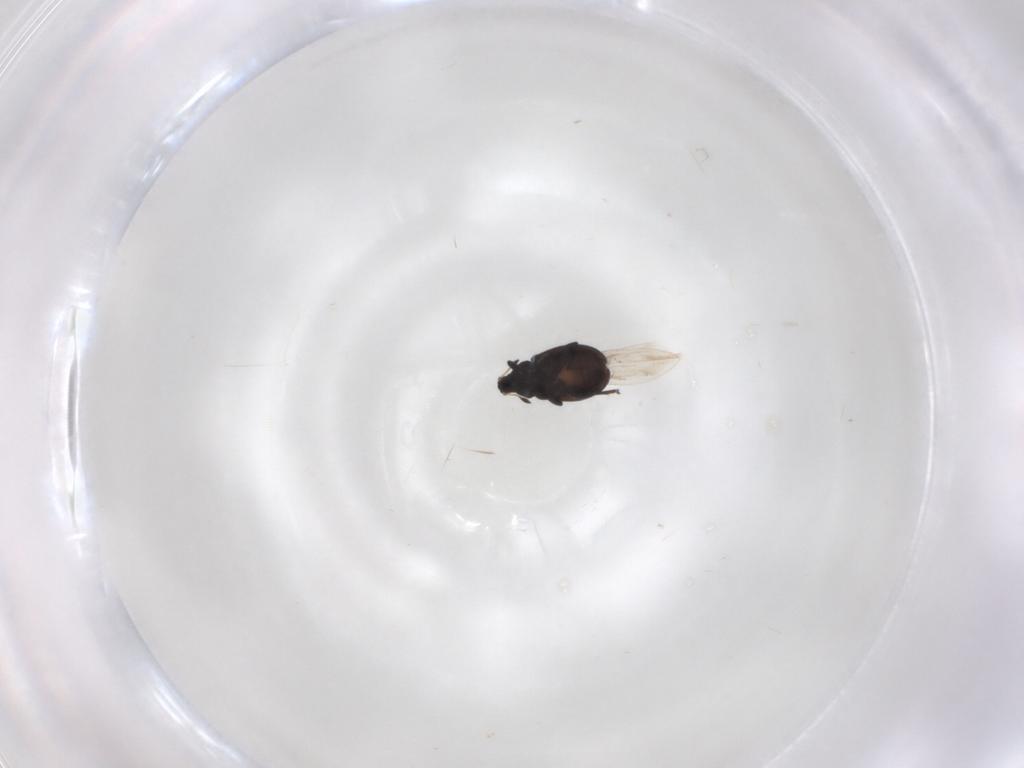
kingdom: Animalia
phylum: Arthropoda
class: Insecta
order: Coleoptera
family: Curculionidae
